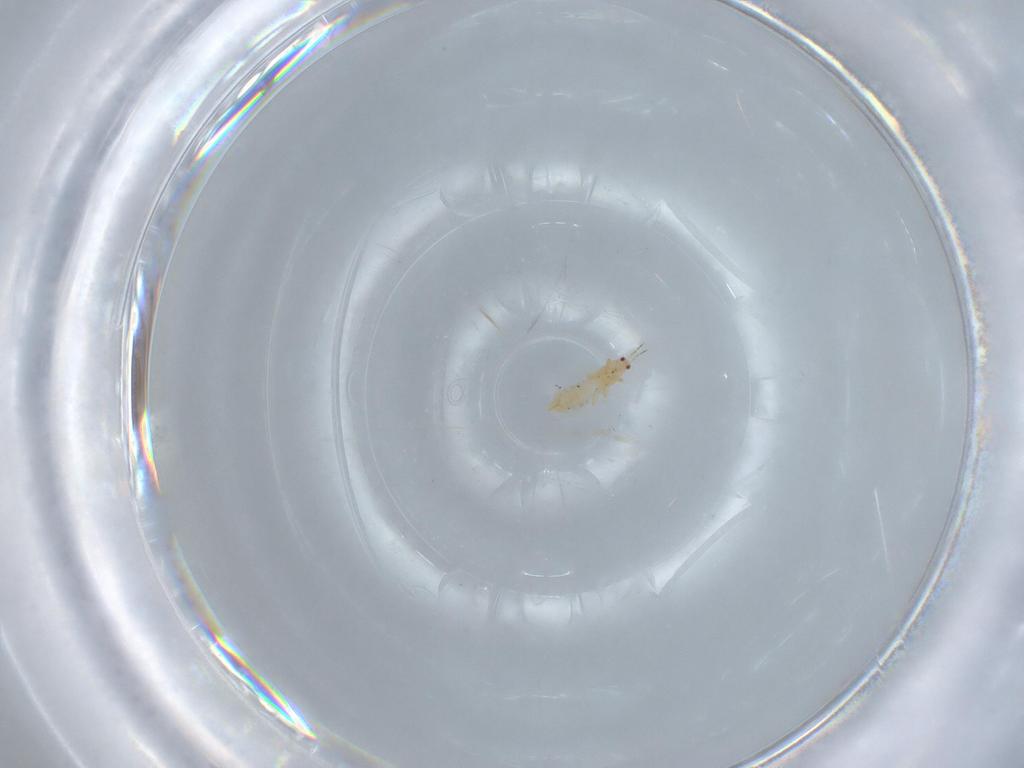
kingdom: Animalia
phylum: Arthropoda
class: Insecta
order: Thysanoptera
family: Thripidae
